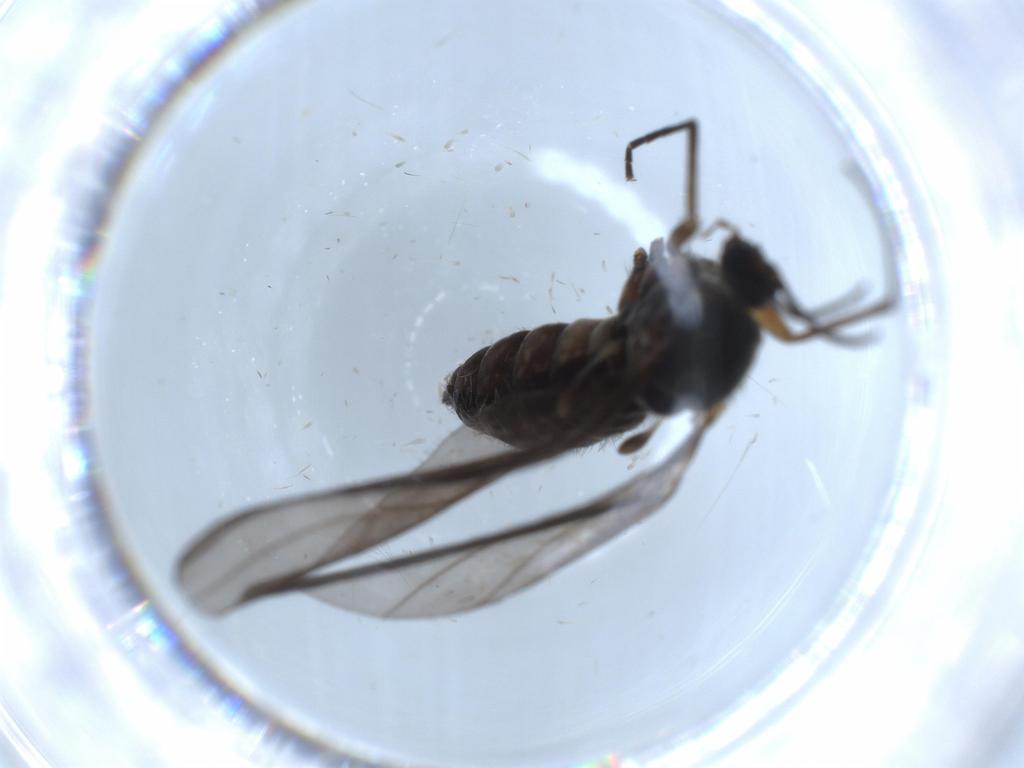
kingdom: Animalia
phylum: Arthropoda
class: Insecta
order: Diptera
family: Sciaridae
